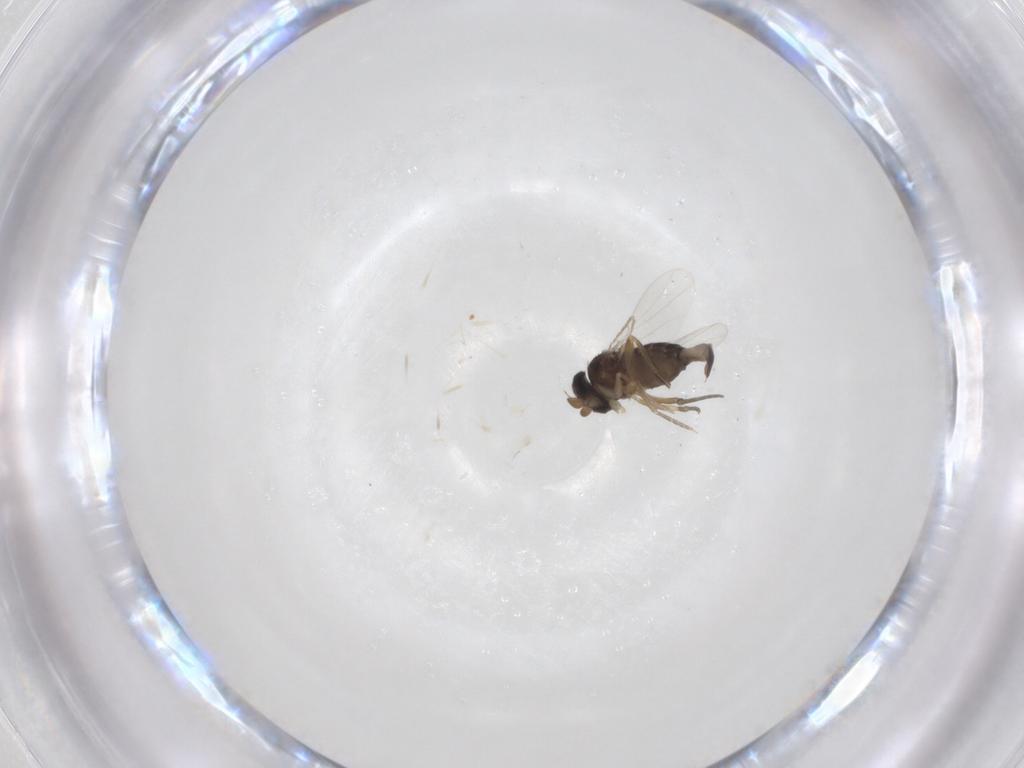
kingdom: Animalia
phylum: Arthropoda
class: Insecta
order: Diptera
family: Phoridae
